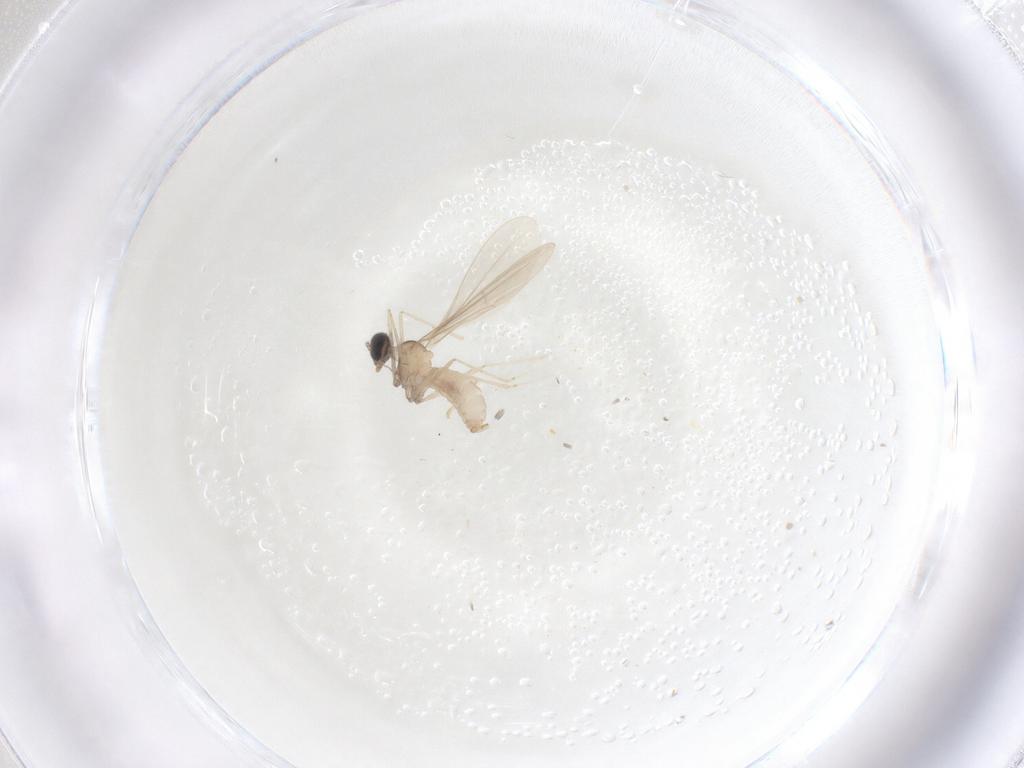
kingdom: Animalia
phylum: Arthropoda
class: Insecta
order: Diptera
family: Cecidomyiidae
